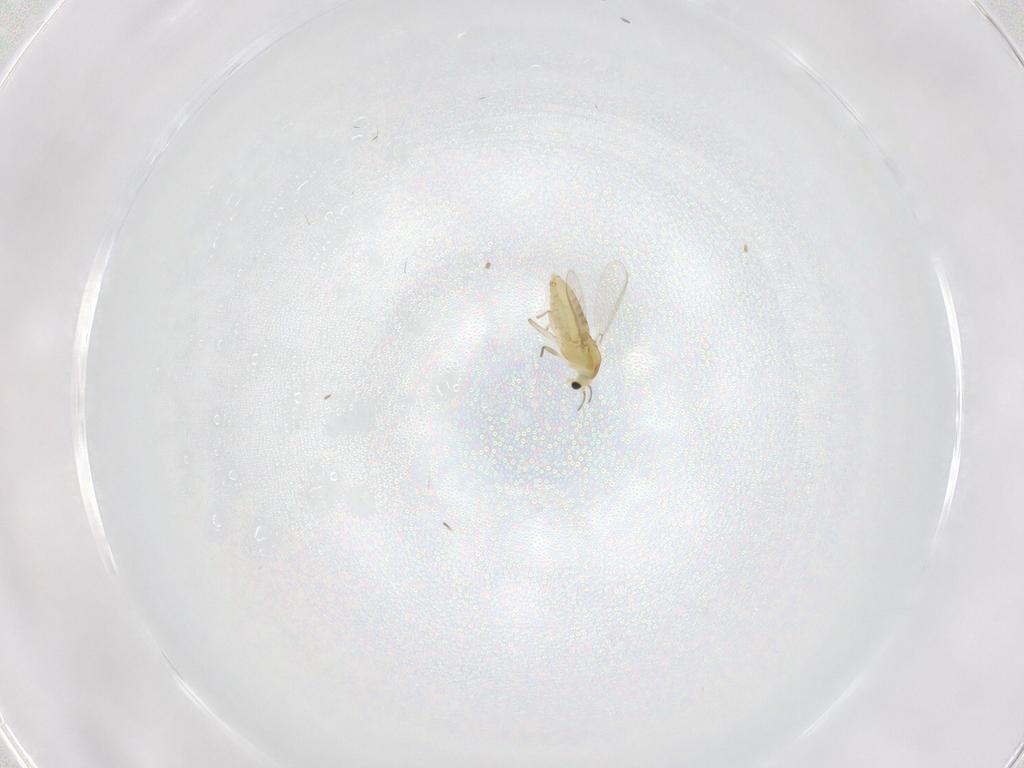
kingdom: Animalia
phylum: Arthropoda
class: Insecta
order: Diptera
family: Chironomidae
